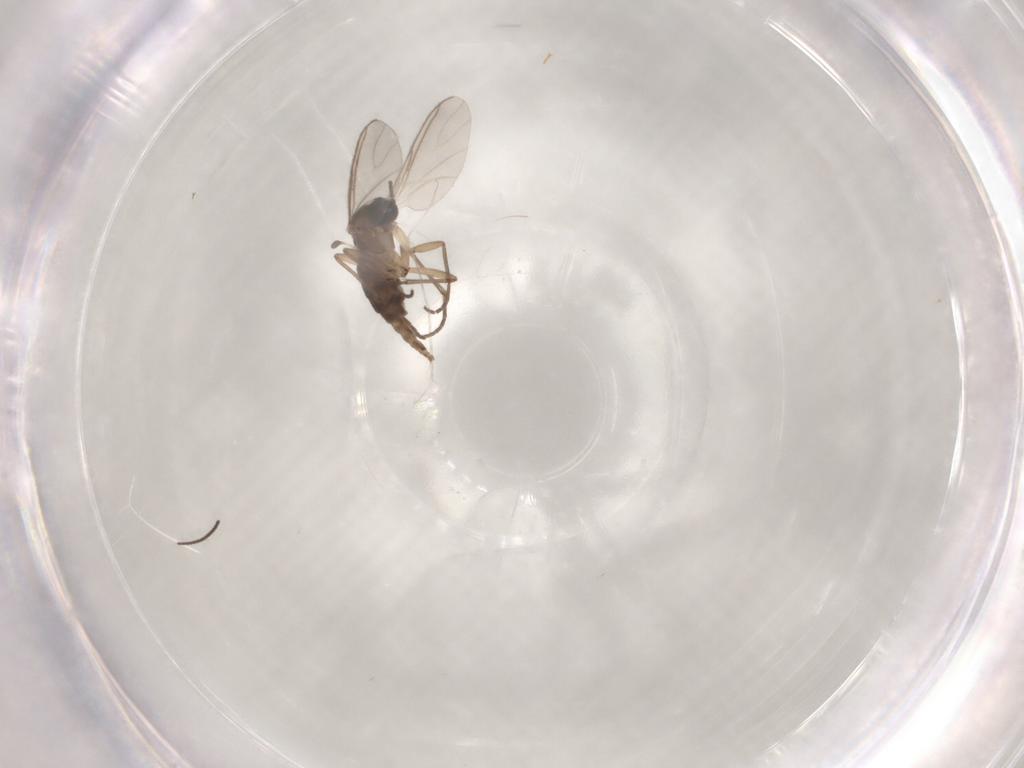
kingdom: Animalia
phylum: Arthropoda
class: Insecta
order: Diptera
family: Sciaridae
